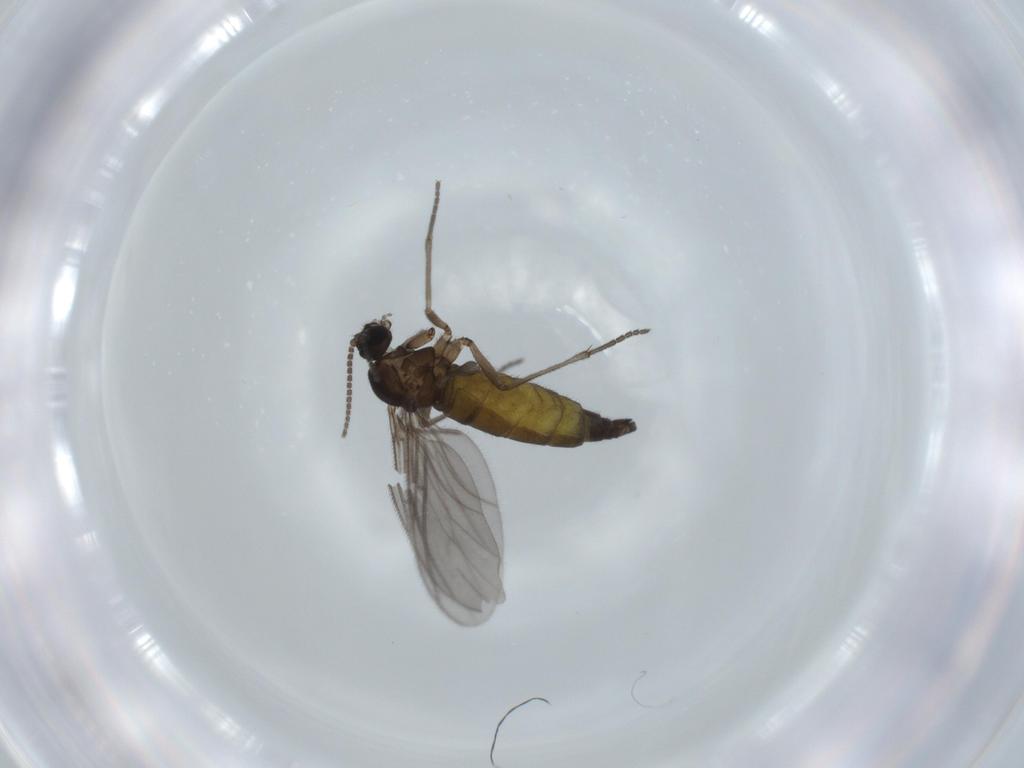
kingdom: Animalia
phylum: Arthropoda
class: Insecta
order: Diptera
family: Sciaridae
